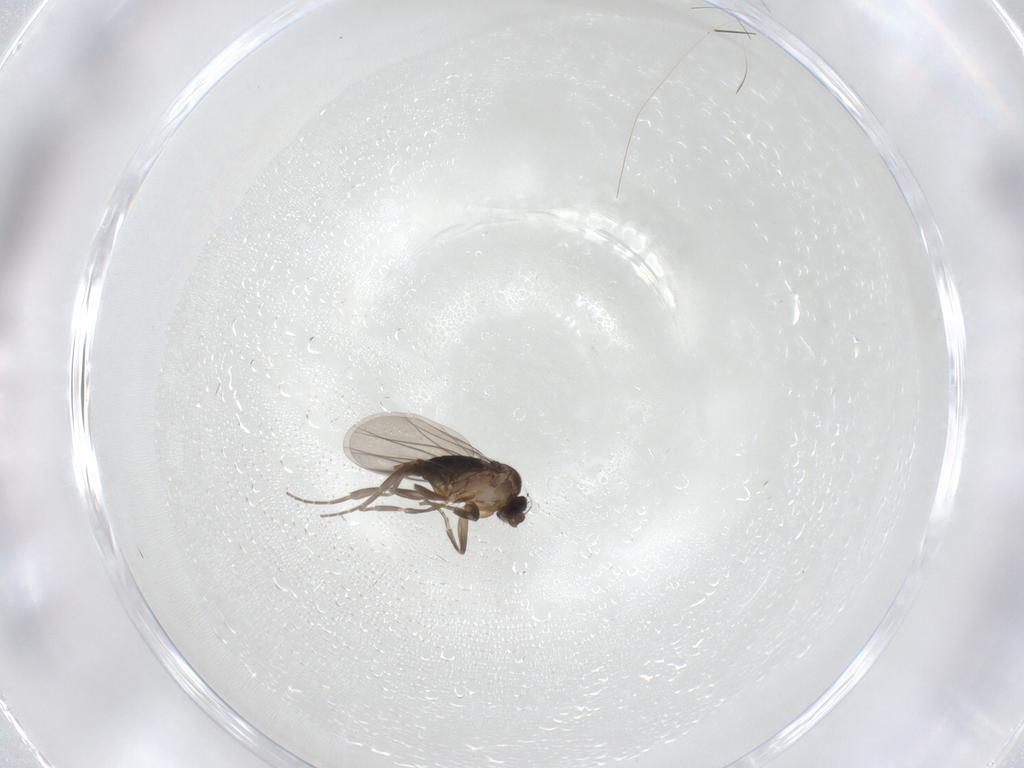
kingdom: Animalia
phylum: Arthropoda
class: Insecta
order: Diptera
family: Phoridae
